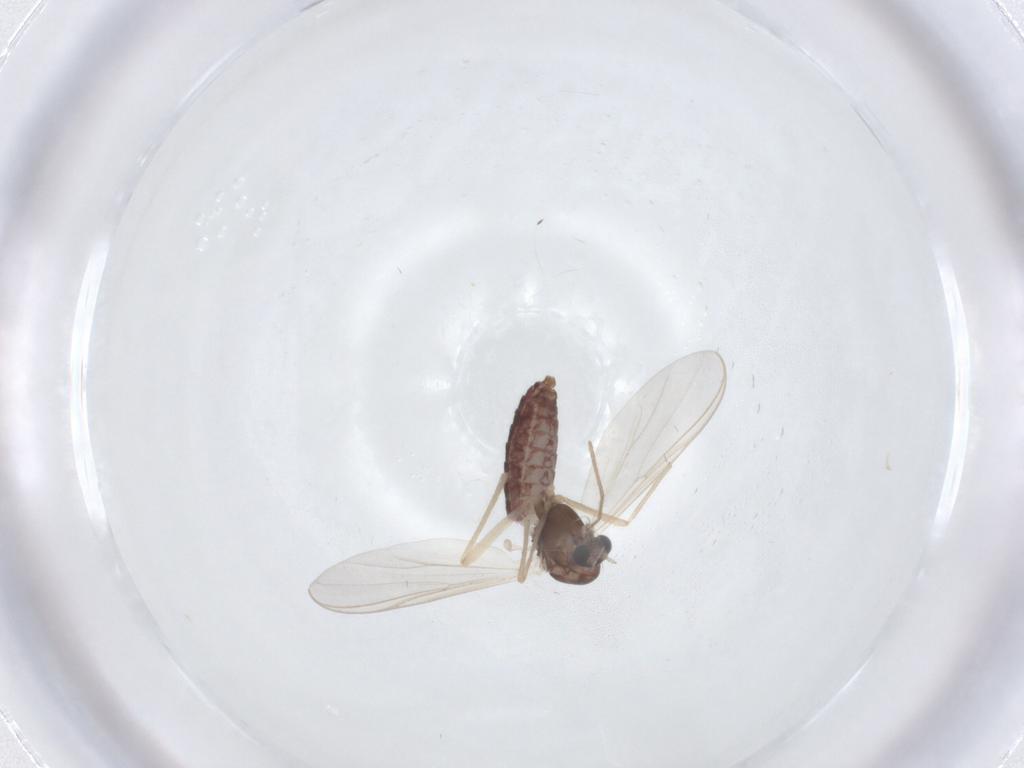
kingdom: Animalia
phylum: Arthropoda
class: Insecta
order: Diptera
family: Chironomidae
